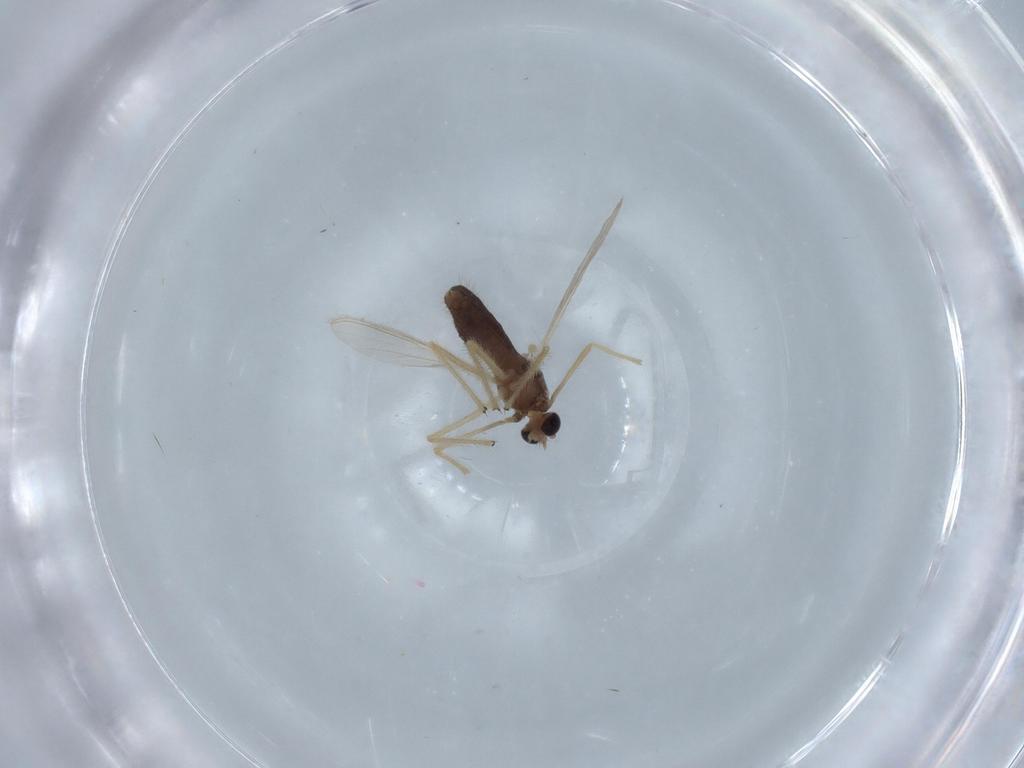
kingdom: Animalia
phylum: Arthropoda
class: Insecta
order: Diptera
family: Chironomidae
